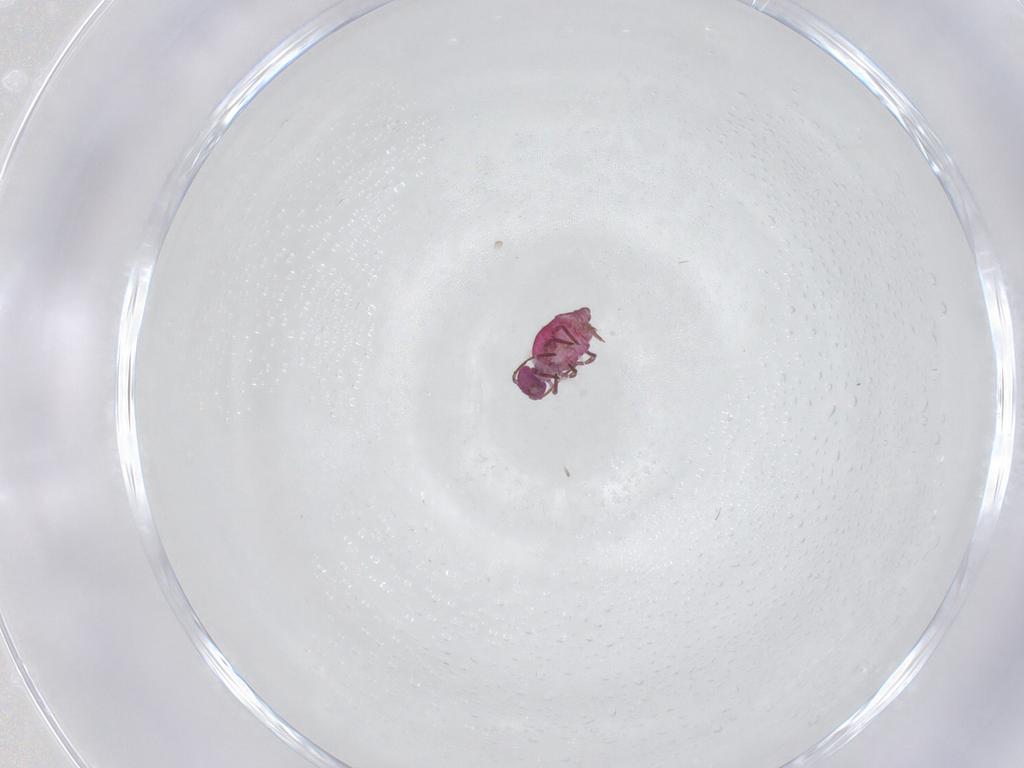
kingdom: Animalia
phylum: Arthropoda
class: Collembola
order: Symphypleona
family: Sminthuridae
